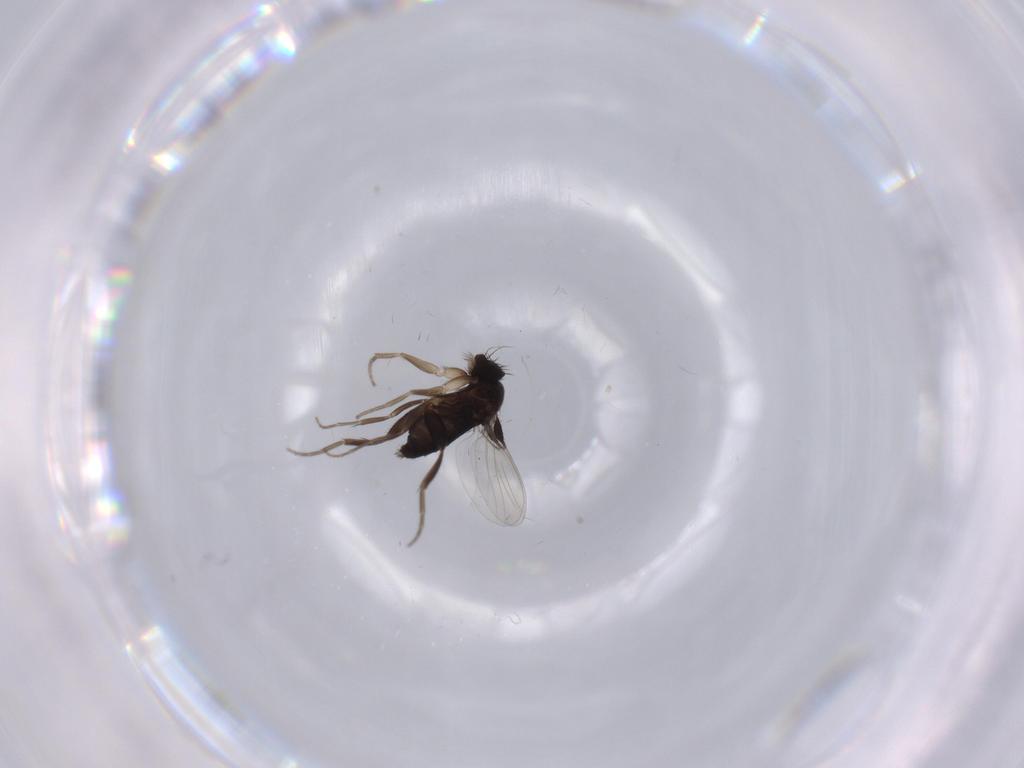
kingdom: Animalia
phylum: Arthropoda
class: Insecta
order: Diptera
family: Phoridae
